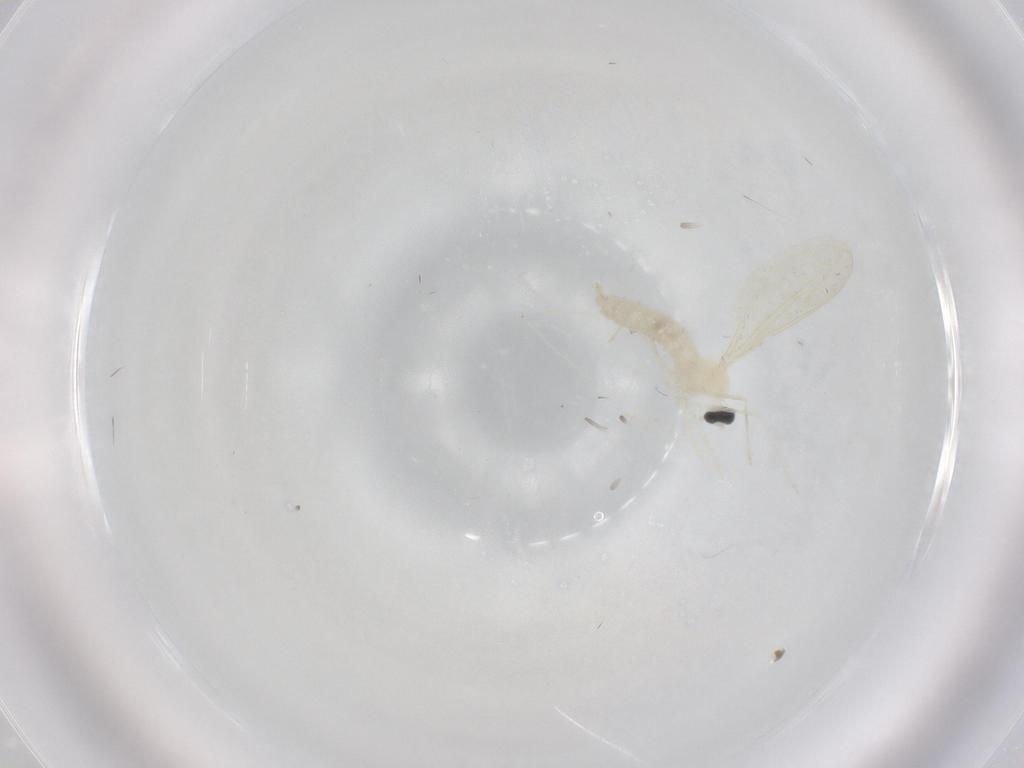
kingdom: Animalia
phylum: Arthropoda
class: Insecta
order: Diptera
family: Cecidomyiidae
